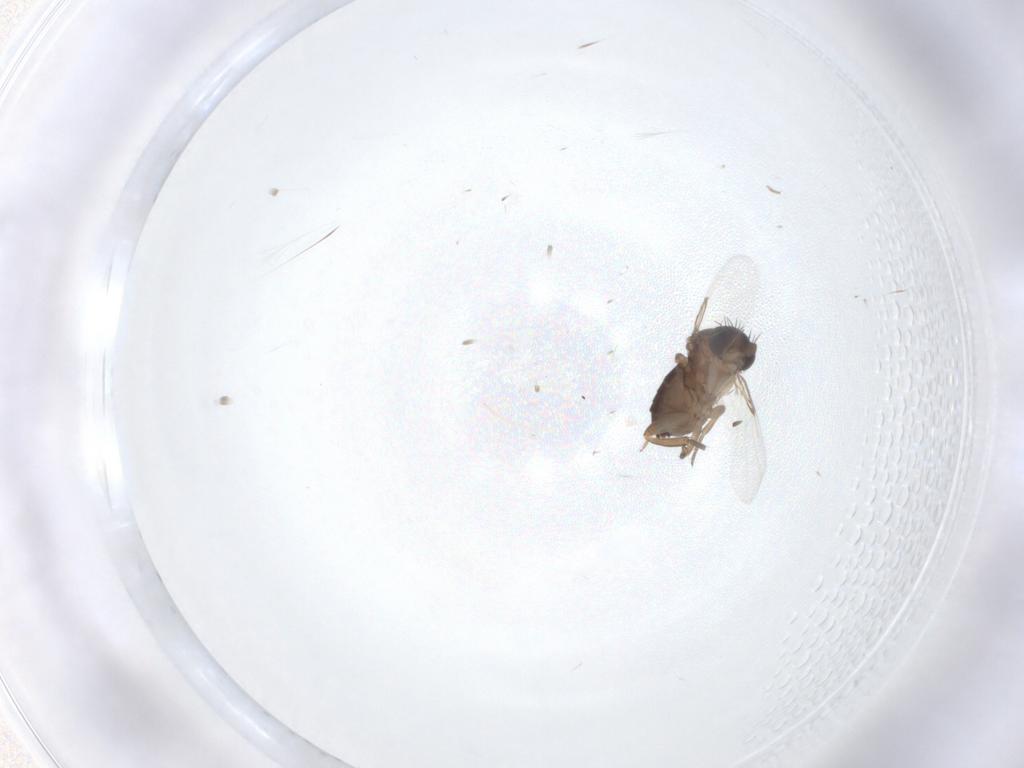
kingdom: Animalia
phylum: Arthropoda
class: Insecta
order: Diptera
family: Phoridae
